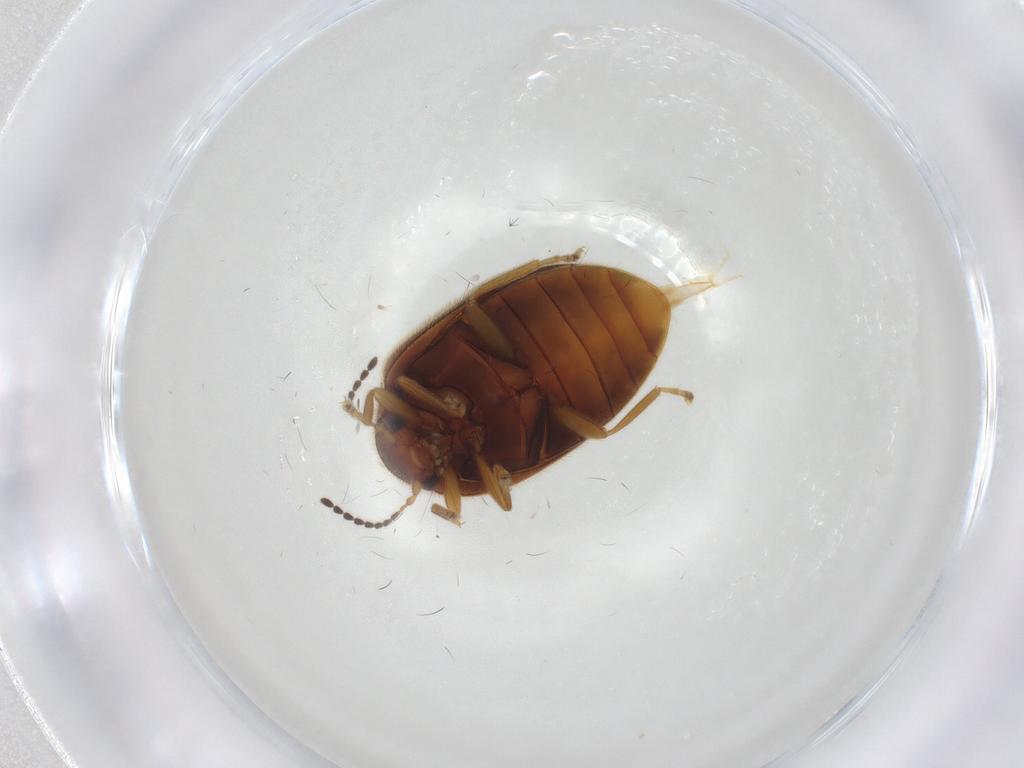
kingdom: Animalia
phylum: Arthropoda
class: Insecta
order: Coleoptera
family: Scirtidae
